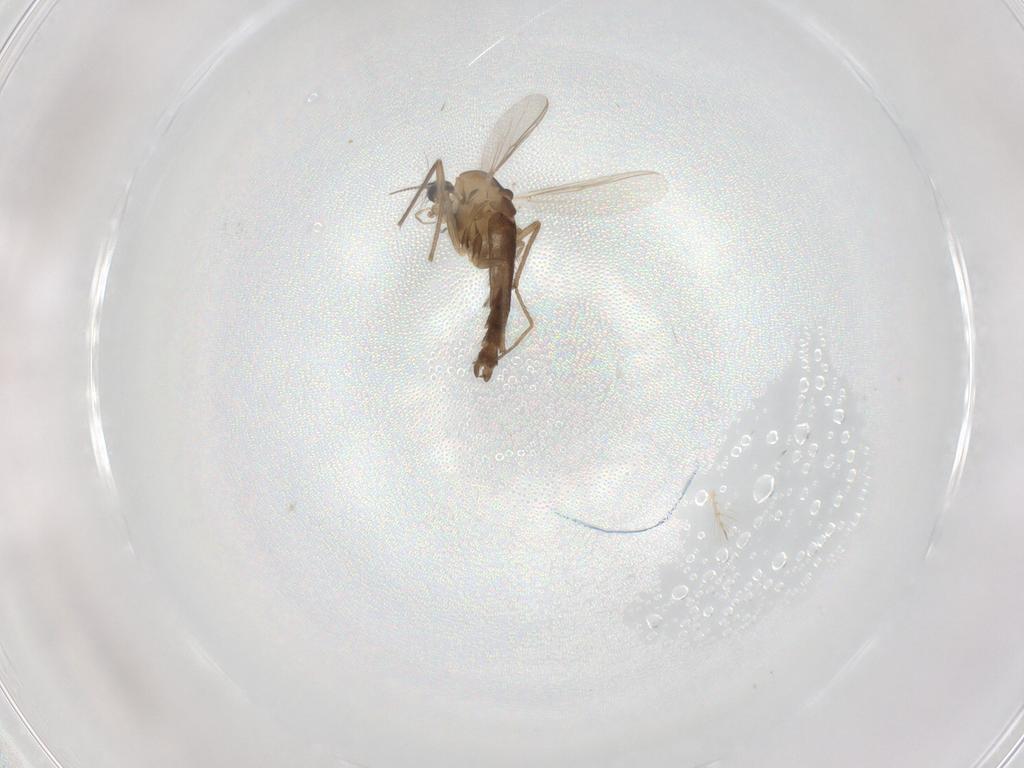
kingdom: Animalia
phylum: Arthropoda
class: Insecta
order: Diptera
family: Chironomidae
